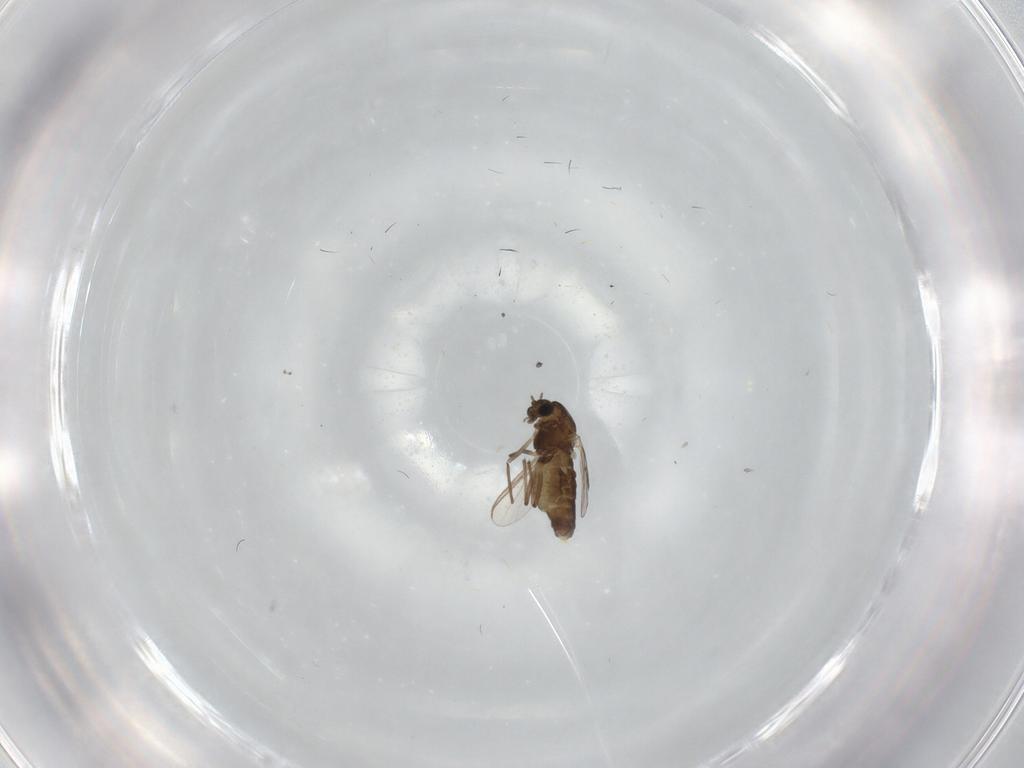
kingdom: Animalia
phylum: Arthropoda
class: Insecta
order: Diptera
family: Chironomidae
